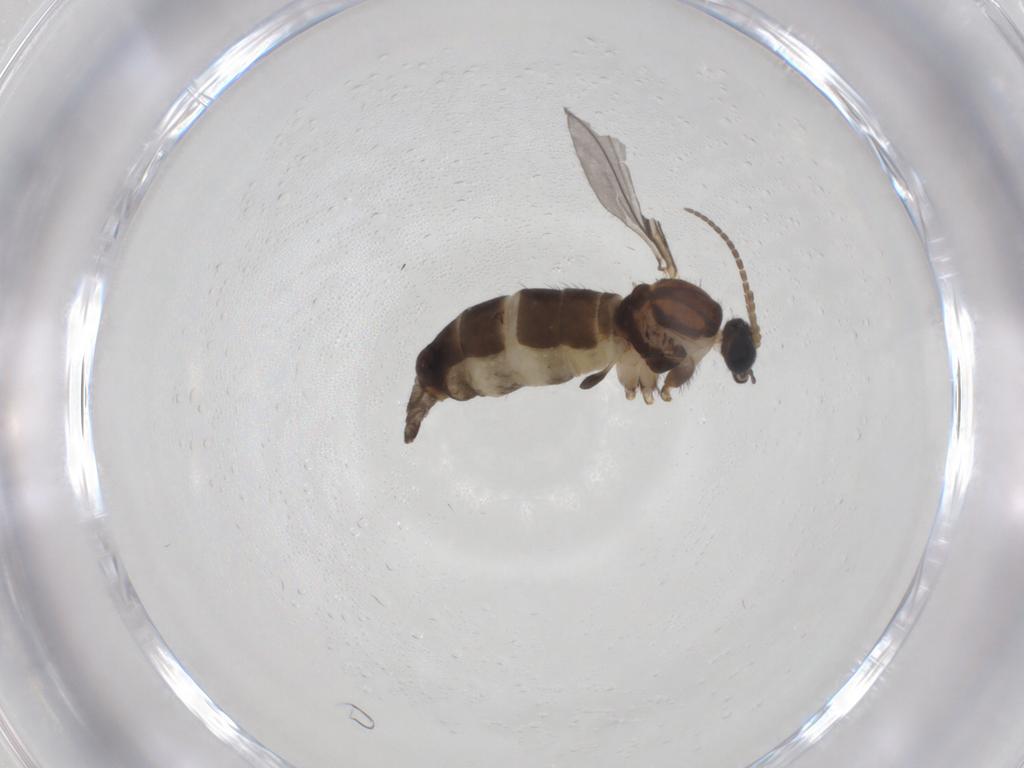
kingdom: Animalia
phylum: Arthropoda
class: Insecta
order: Diptera
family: Sciaridae
